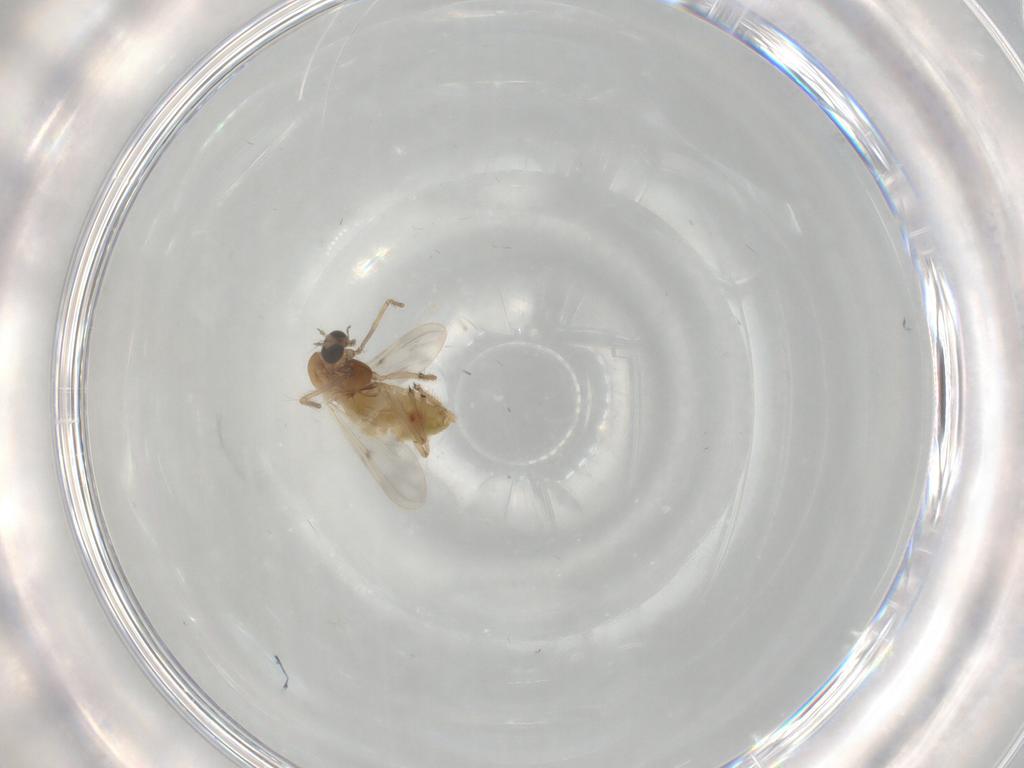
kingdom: Animalia
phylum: Arthropoda
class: Insecta
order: Diptera
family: Chironomidae
